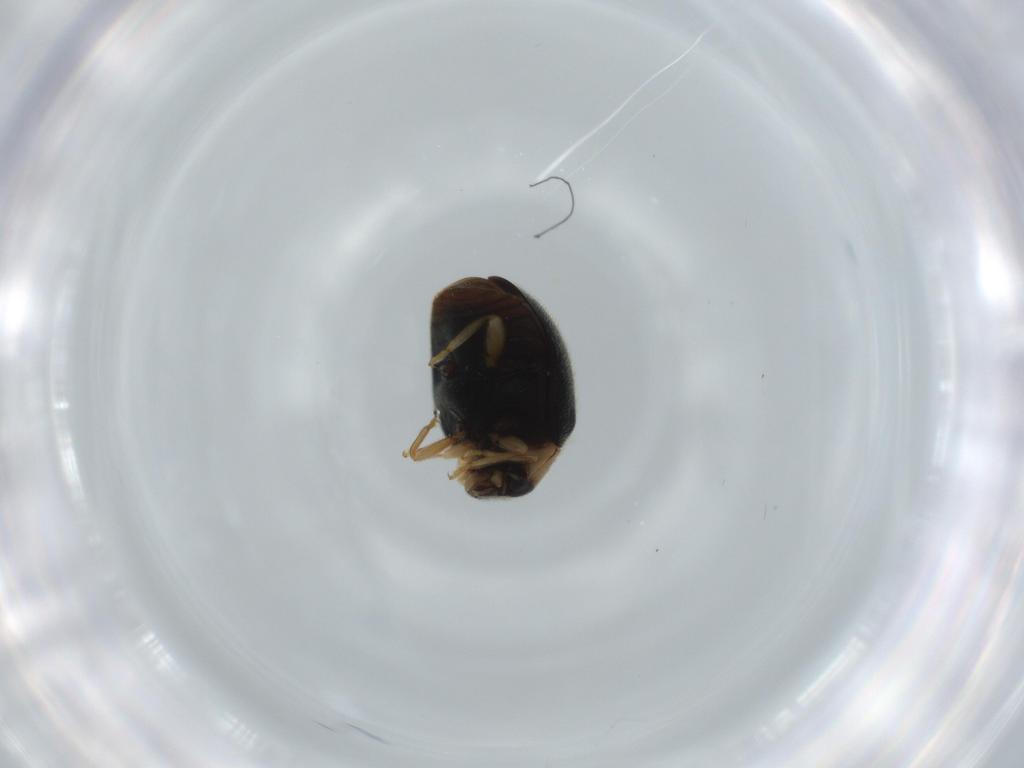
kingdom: Animalia
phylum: Arthropoda
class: Insecta
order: Coleoptera
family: Coccinellidae
